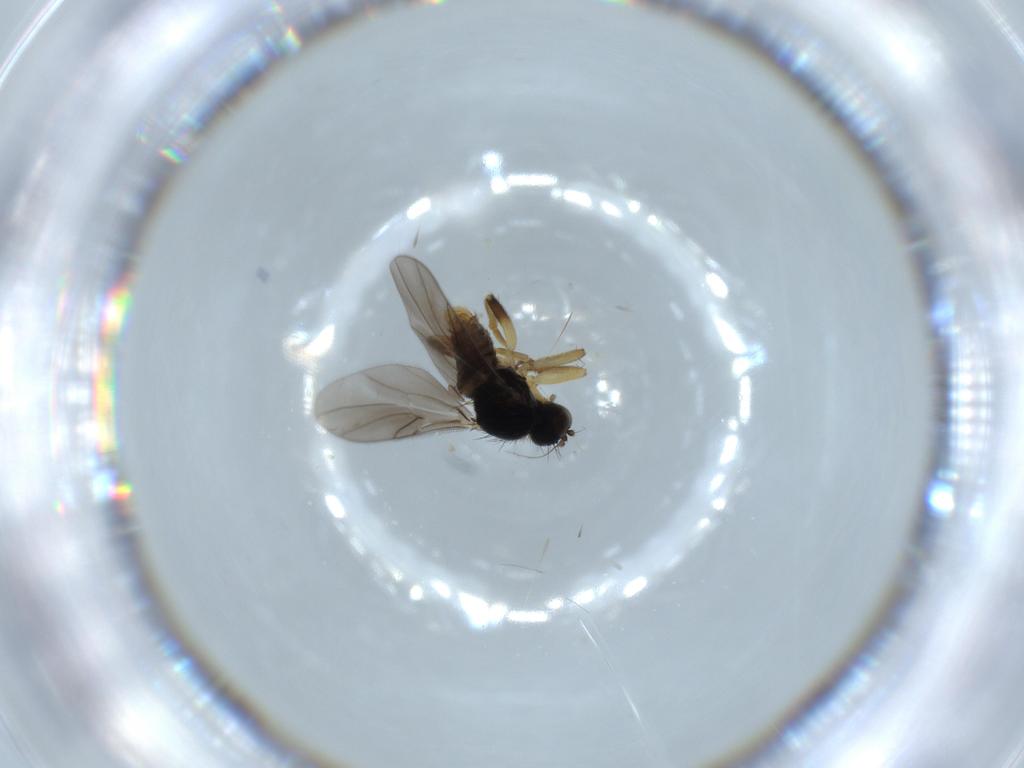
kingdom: Animalia
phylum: Arthropoda
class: Insecta
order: Diptera
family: Hybotidae
